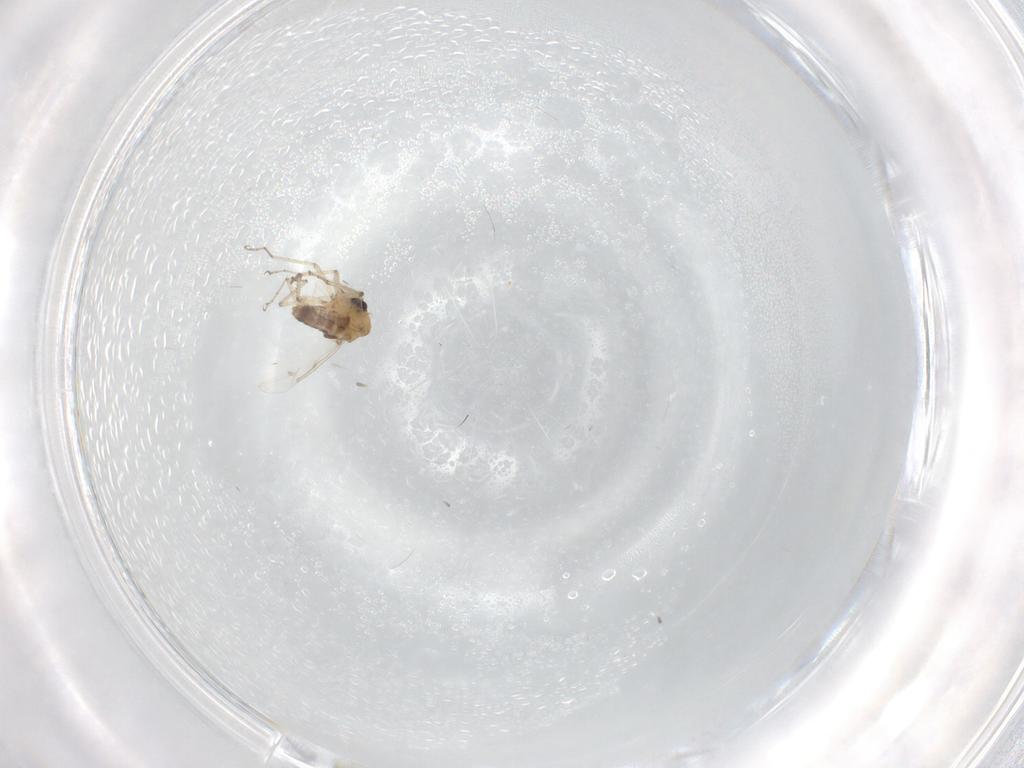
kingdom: Animalia
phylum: Arthropoda
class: Insecta
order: Diptera
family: Ceratopogonidae
